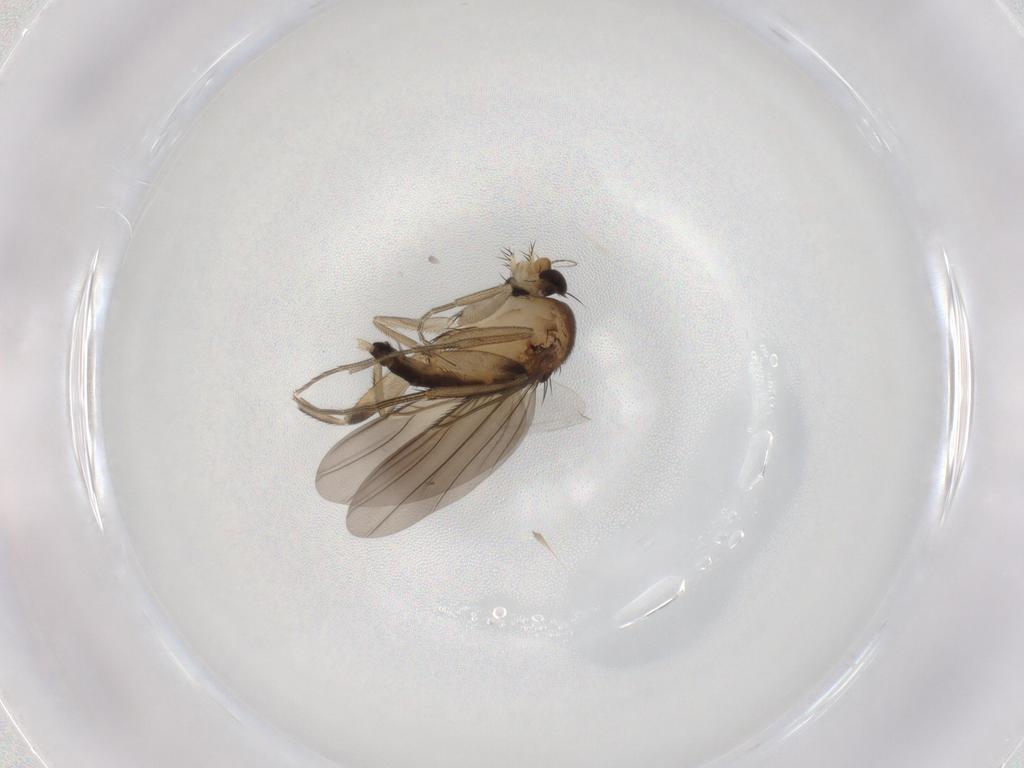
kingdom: Animalia
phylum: Arthropoda
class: Insecta
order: Diptera
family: Phoridae
